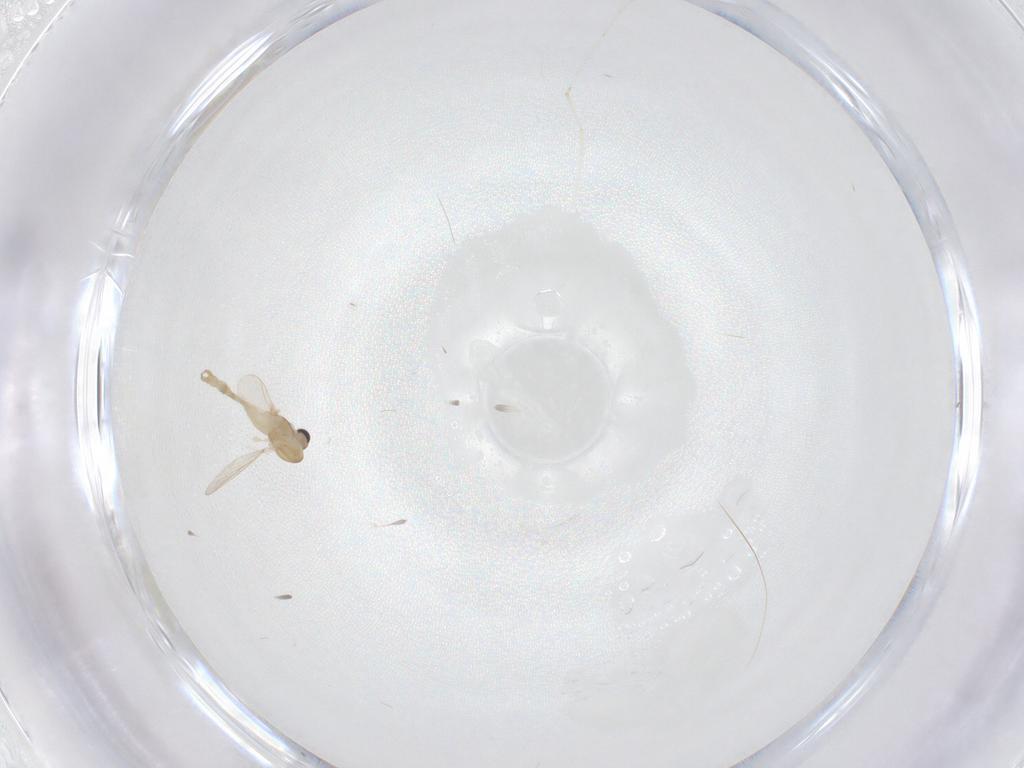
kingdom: Animalia
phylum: Arthropoda
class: Insecta
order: Diptera
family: Chironomidae
